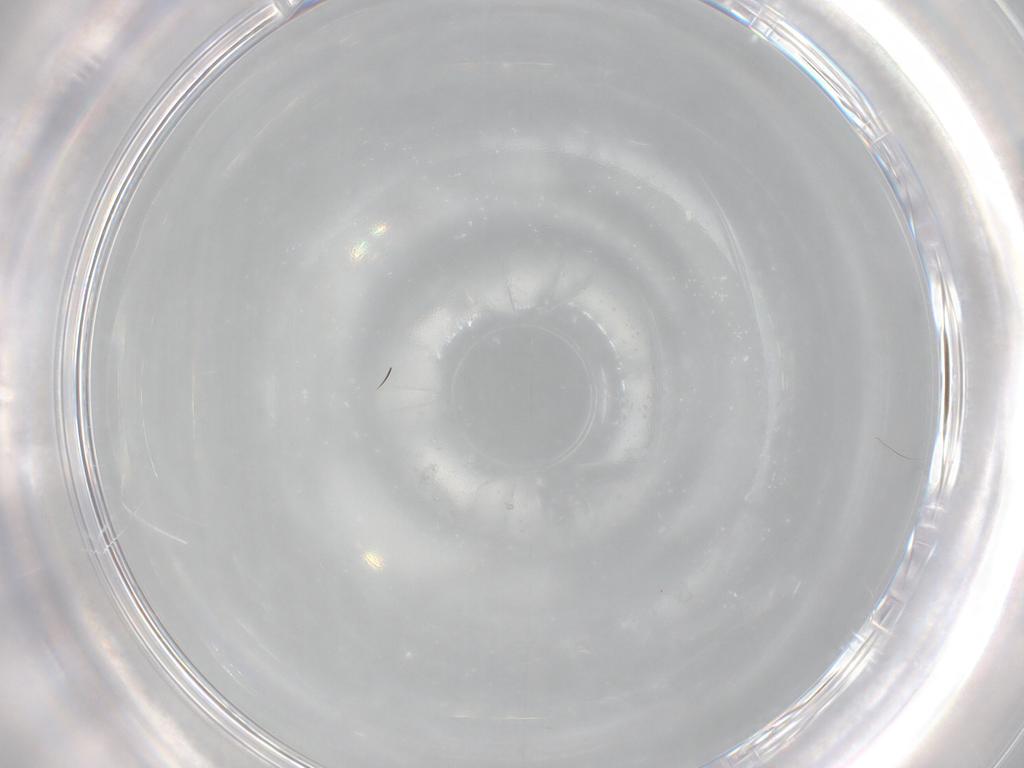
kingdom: Animalia
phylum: Arthropoda
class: Insecta
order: Diptera
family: Chironomidae
